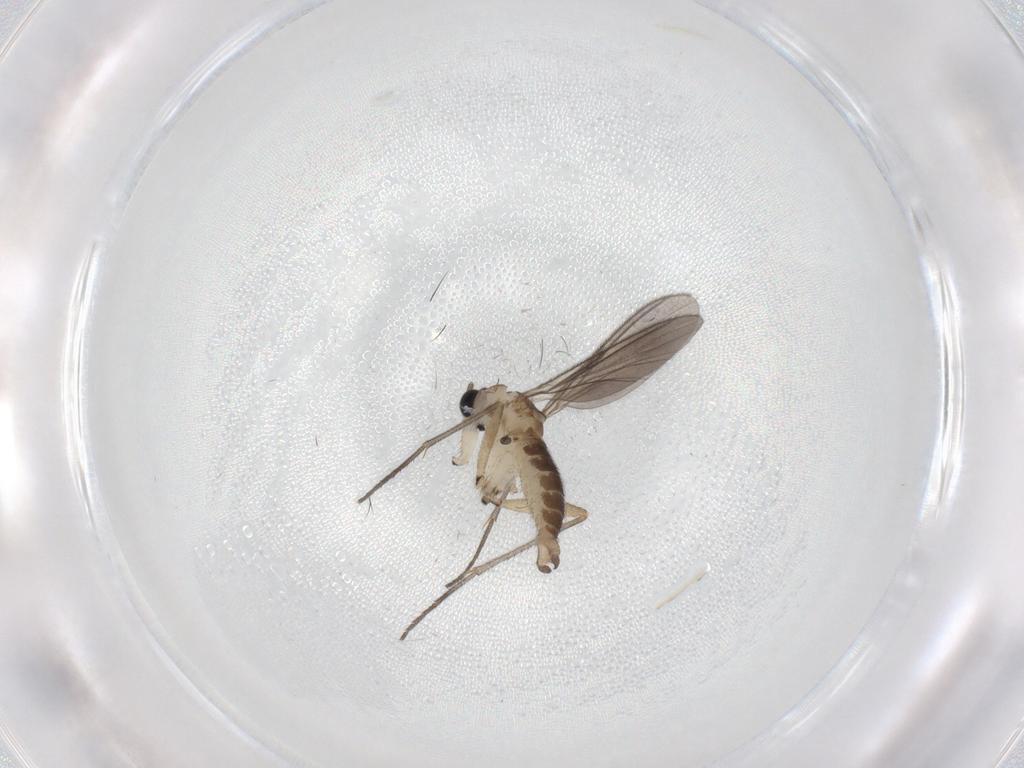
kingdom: Animalia
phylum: Arthropoda
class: Insecta
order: Diptera
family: Sciaridae
